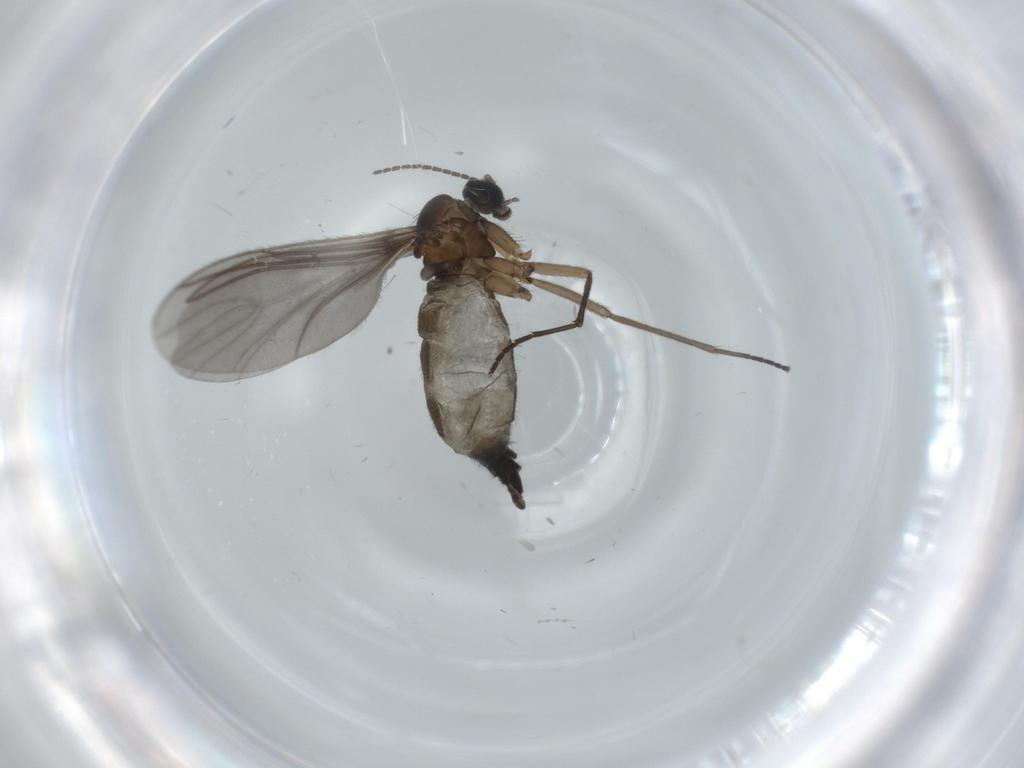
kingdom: Animalia
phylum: Arthropoda
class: Insecta
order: Diptera
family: Sciaridae
